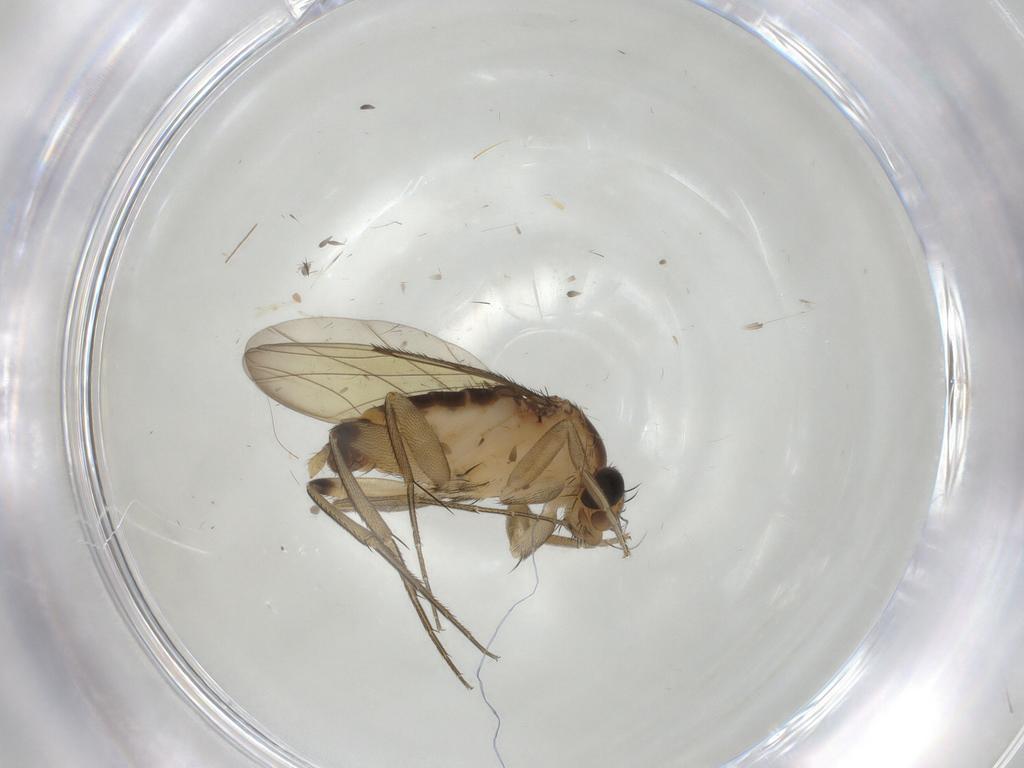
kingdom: Animalia
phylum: Arthropoda
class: Insecta
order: Diptera
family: Phoridae
